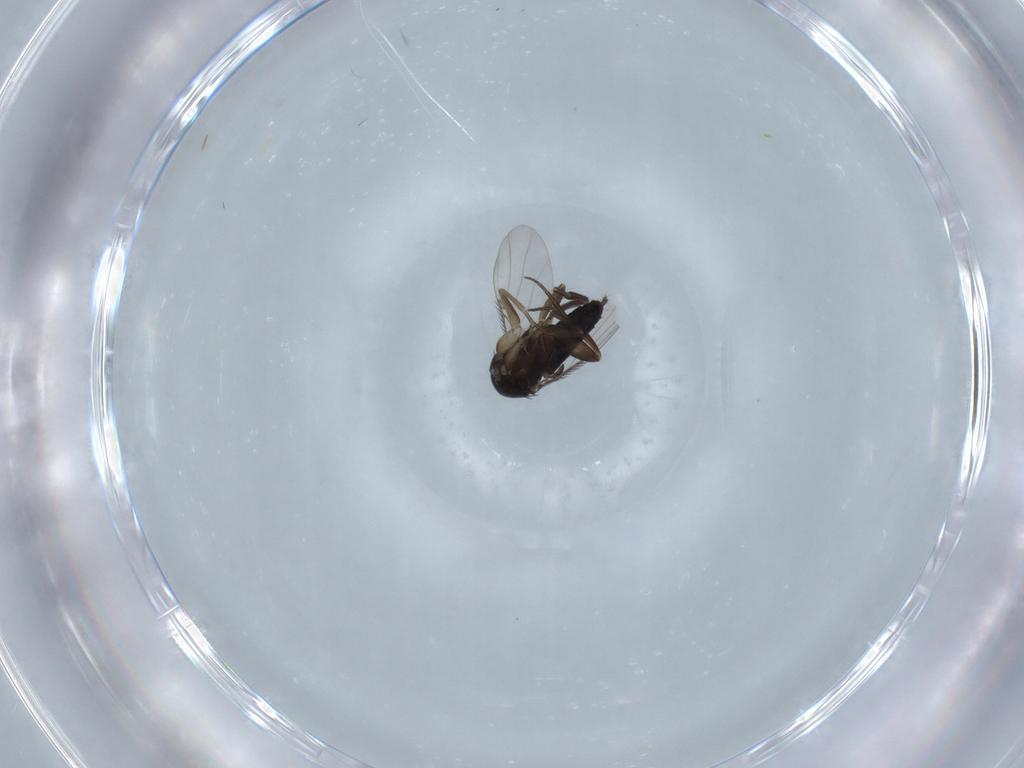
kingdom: Animalia
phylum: Arthropoda
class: Insecta
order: Diptera
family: Phoridae
